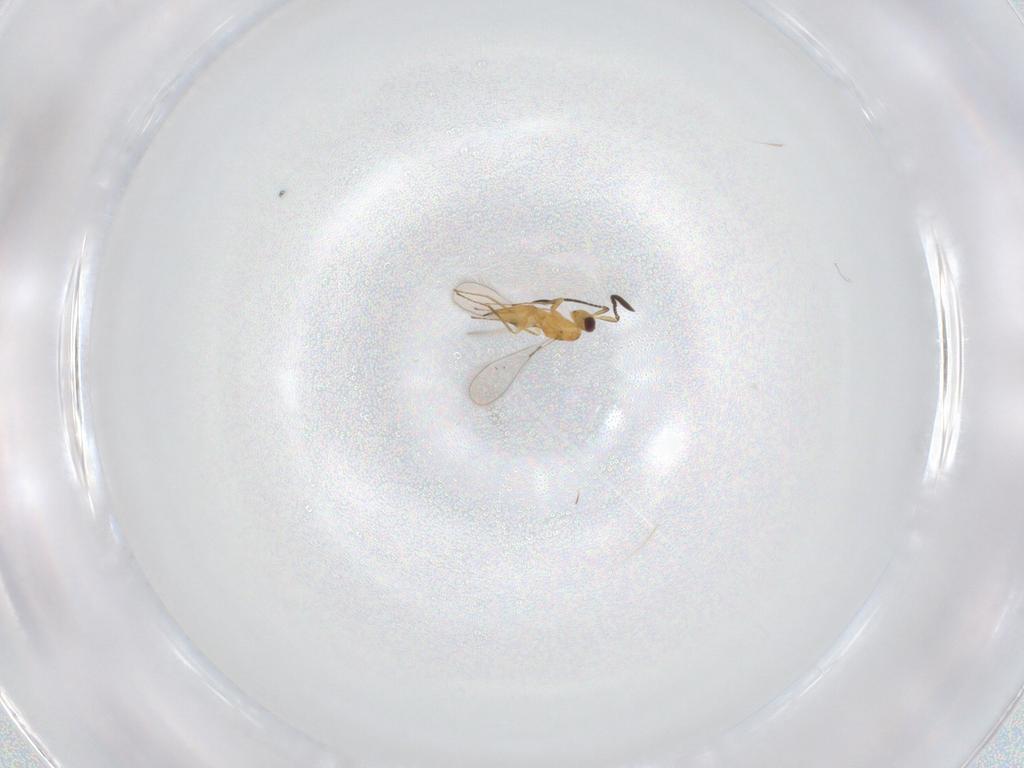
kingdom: Animalia
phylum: Arthropoda
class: Insecta
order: Hymenoptera
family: Mymaridae
